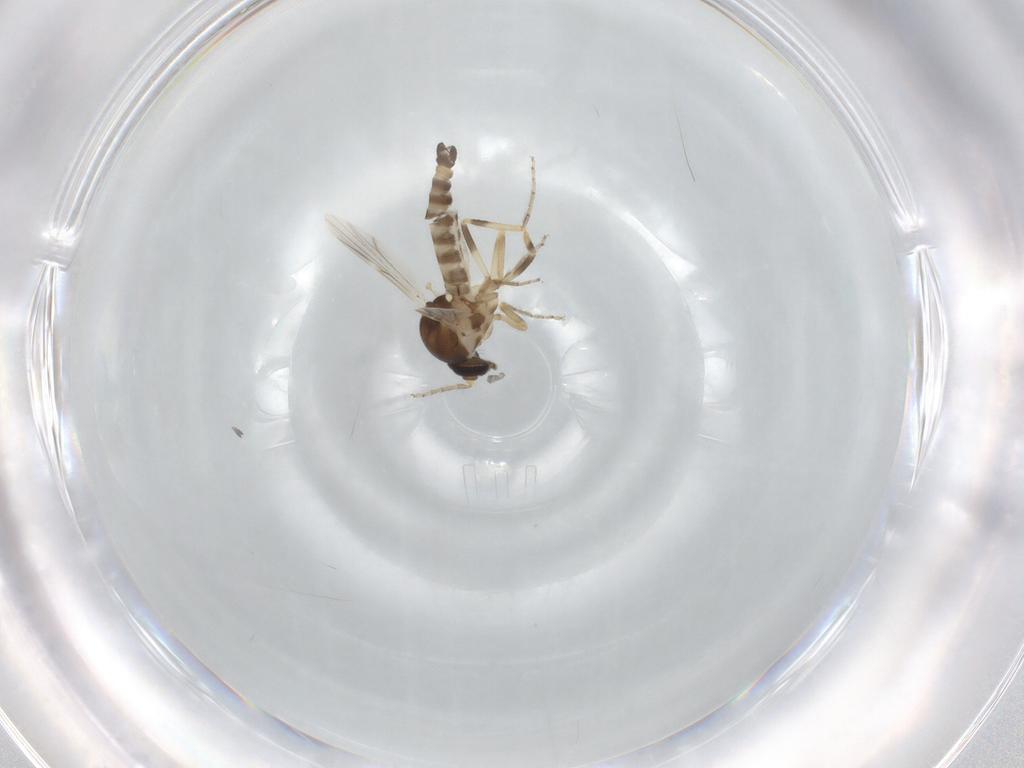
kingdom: Animalia
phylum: Arthropoda
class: Insecta
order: Diptera
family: Ceratopogonidae
